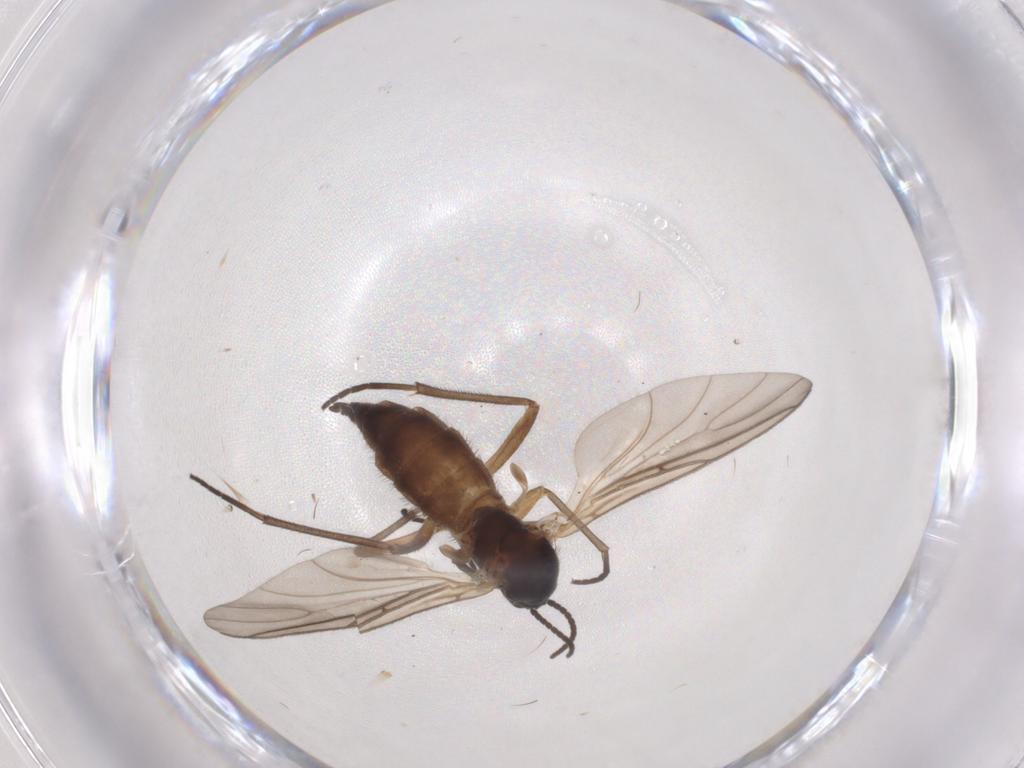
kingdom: Animalia
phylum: Arthropoda
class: Insecta
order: Diptera
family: Sciaridae
